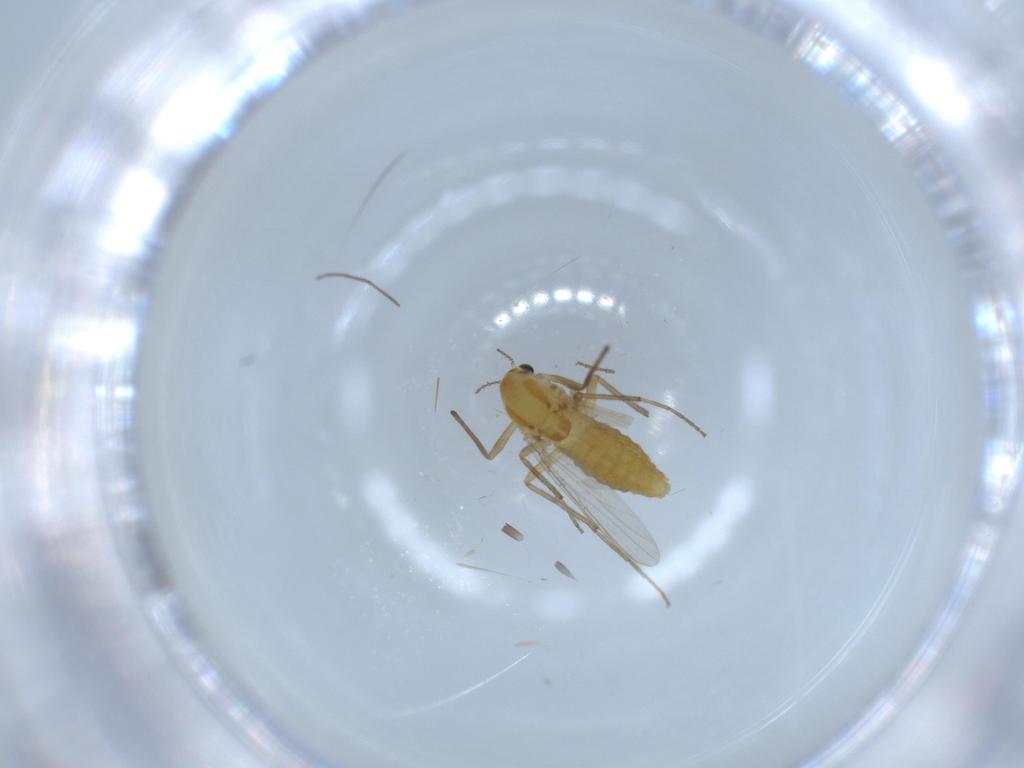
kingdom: Animalia
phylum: Arthropoda
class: Insecta
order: Diptera
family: Chironomidae
